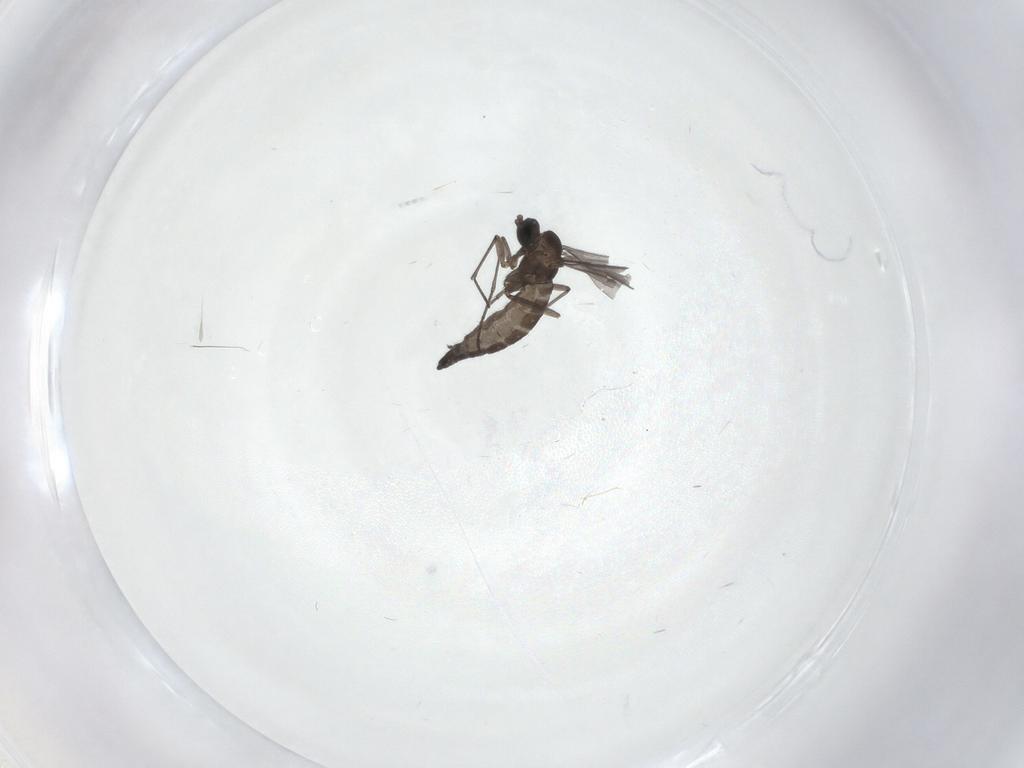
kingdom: Animalia
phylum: Arthropoda
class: Insecta
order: Diptera
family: Sciaridae
